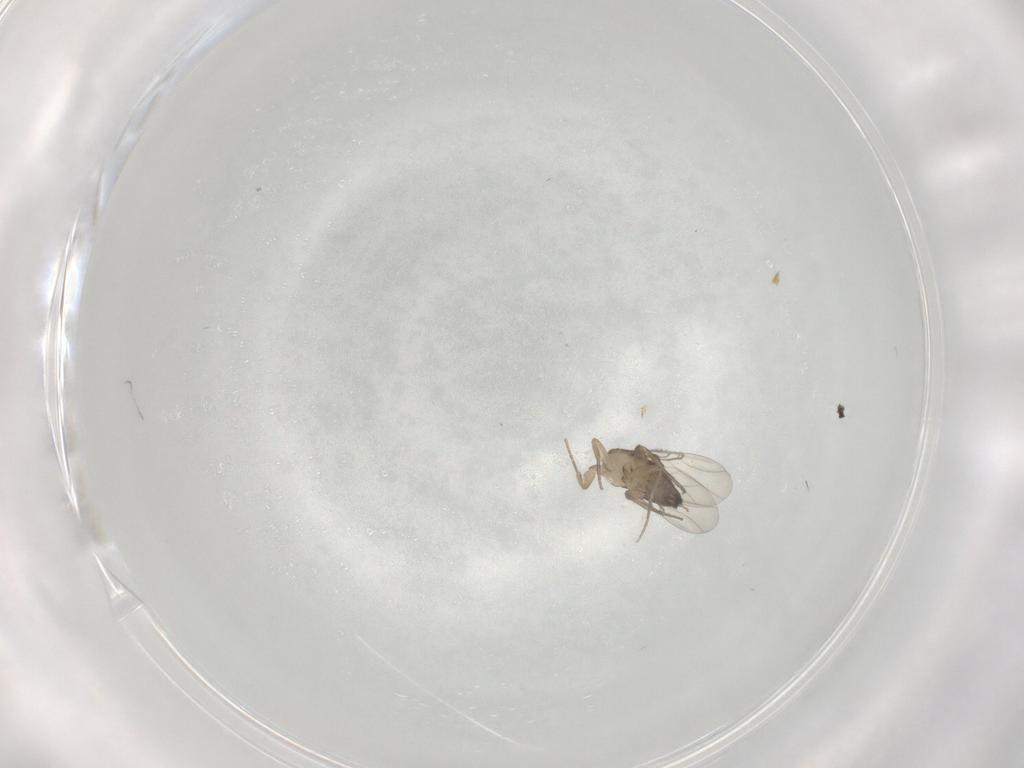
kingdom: Animalia
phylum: Arthropoda
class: Insecta
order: Diptera
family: Phoridae
